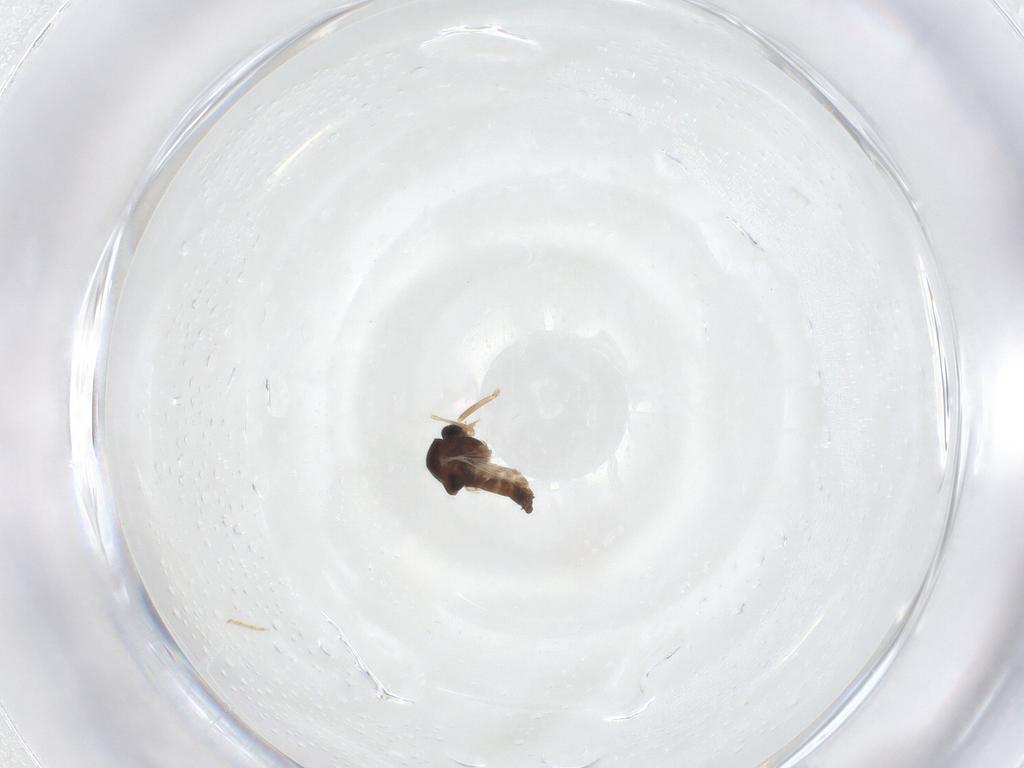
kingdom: Animalia
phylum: Arthropoda
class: Insecta
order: Diptera
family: Ceratopogonidae
